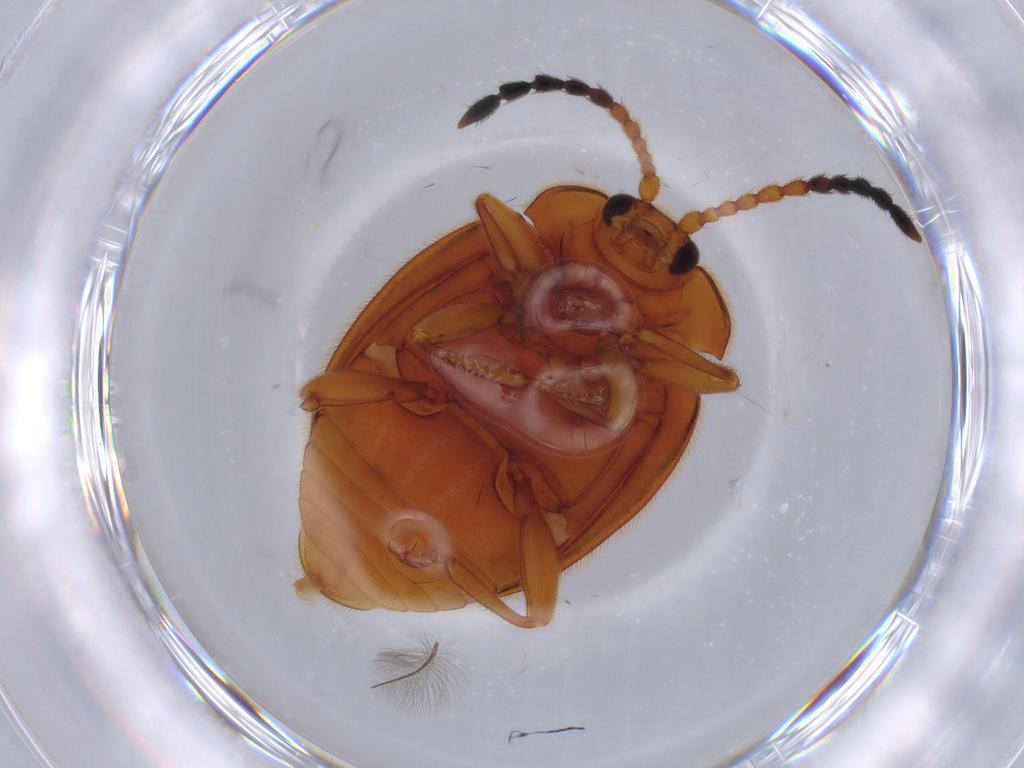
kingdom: Animalia
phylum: Arthropoda
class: Insecta
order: Coleoptera
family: Endomychidae
